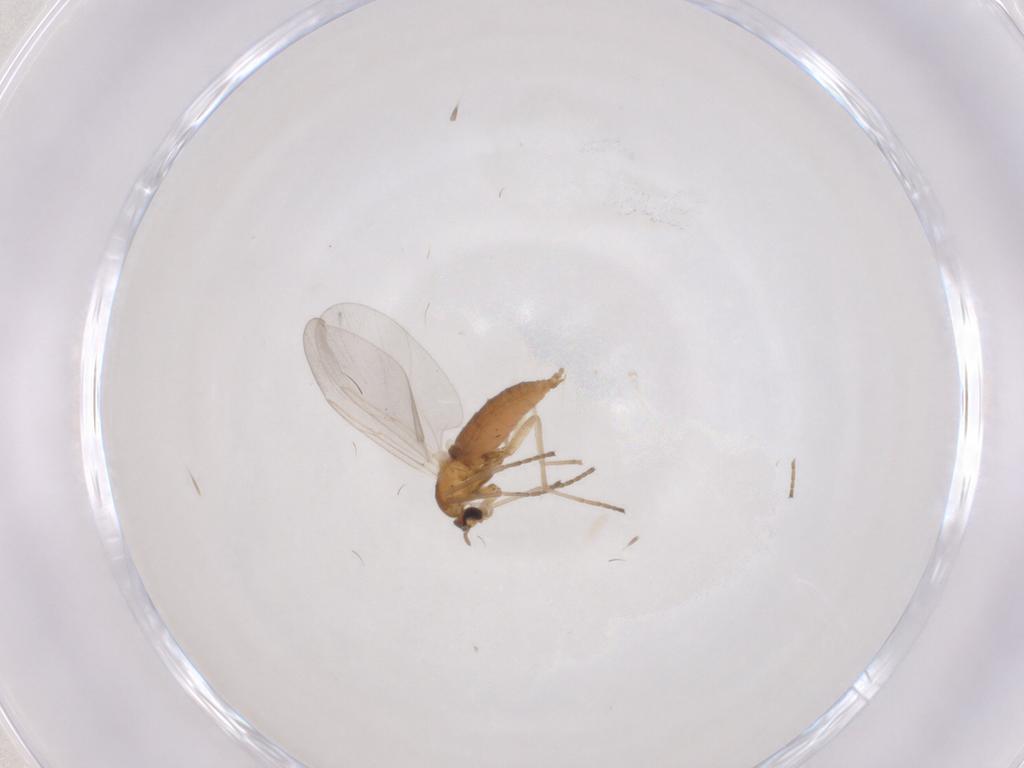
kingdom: Animalia
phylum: Arthropoda
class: Insecta
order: Diptera
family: Cecidomyiidae
